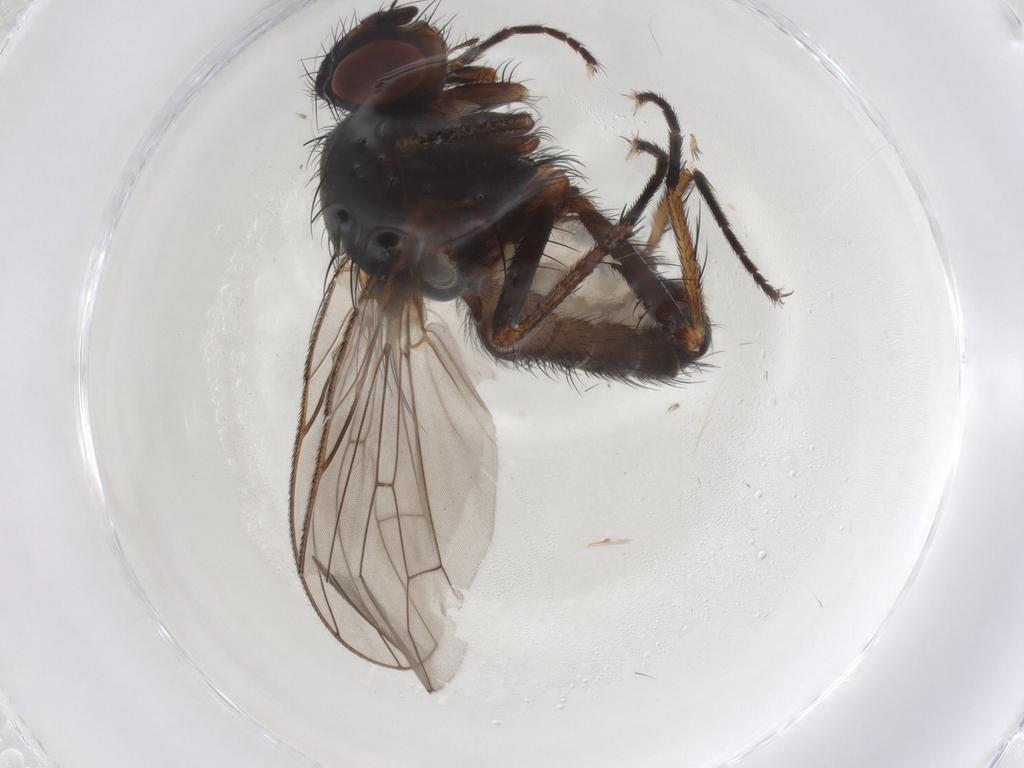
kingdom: Animalia
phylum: Arthropoda
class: Insecta
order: Diptera
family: Anthomyiidae
